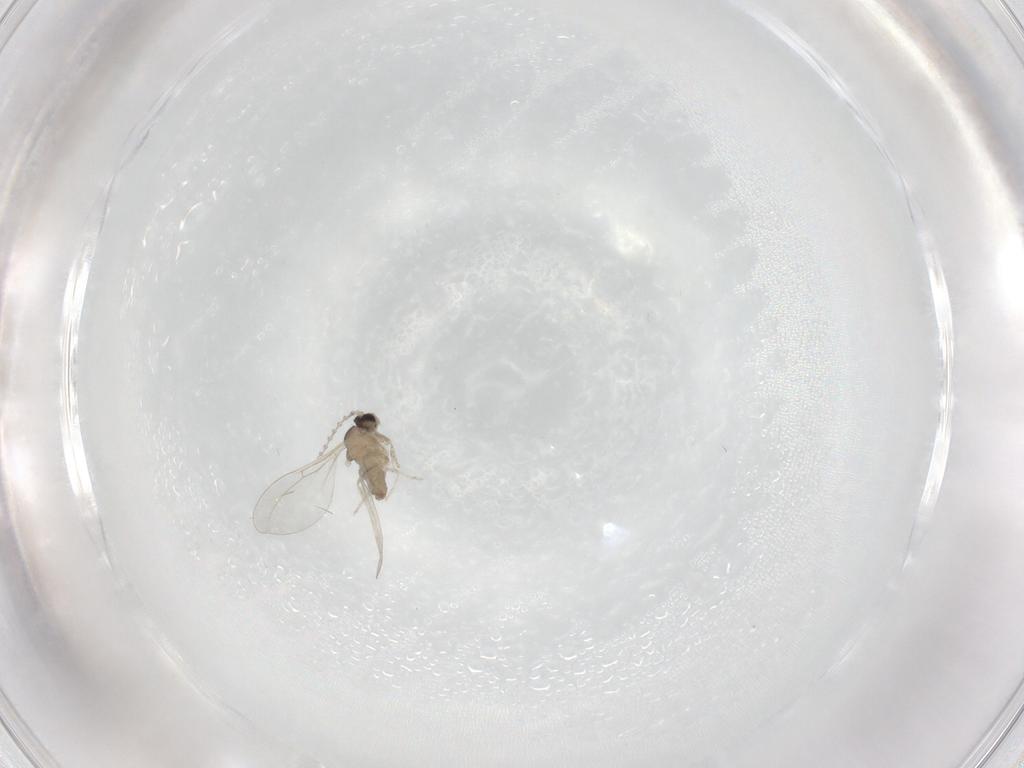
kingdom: Animalia
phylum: Arthropoda
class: Insecta
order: Diptera
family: Cecidomyiidae
